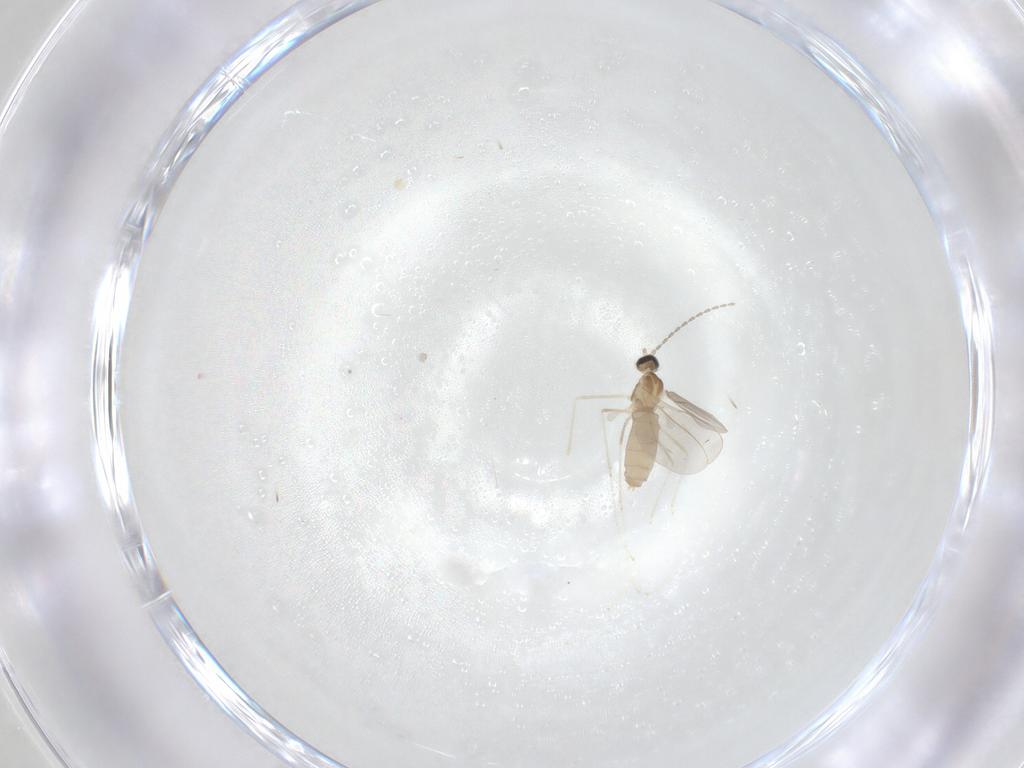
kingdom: Animalia
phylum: Arthropoda
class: Insecta
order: Diptera
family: Cecidomyiidae
